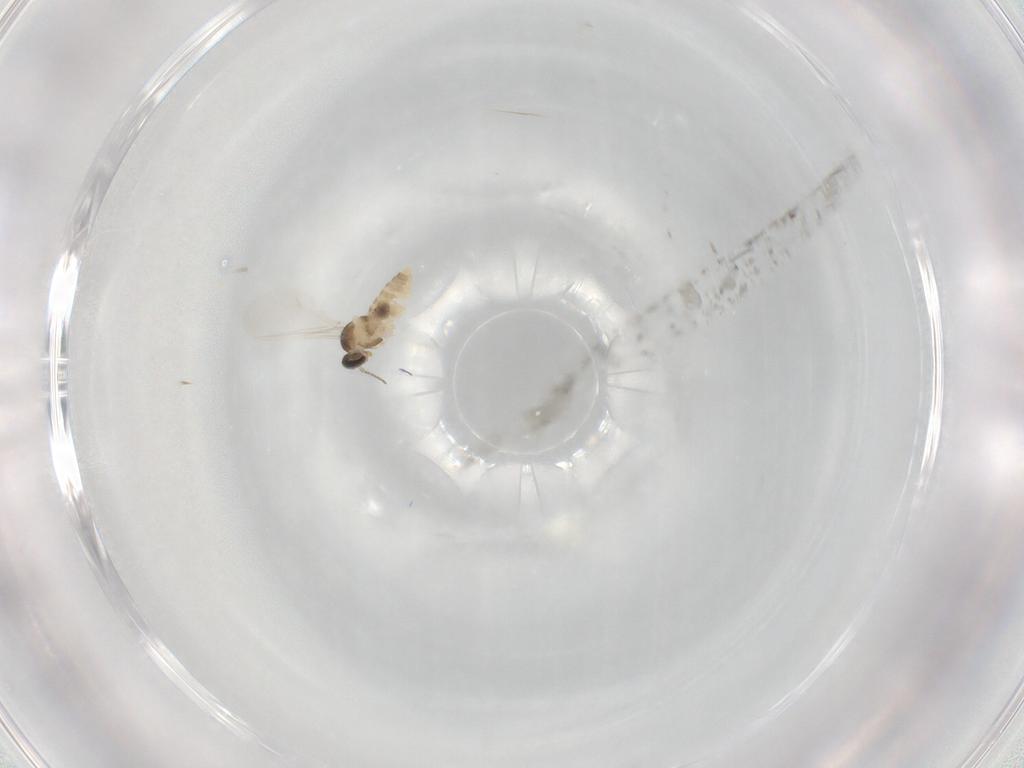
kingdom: Animalia
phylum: Arthropoda
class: Insecta
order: Diptera
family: Cecidomyiidae
